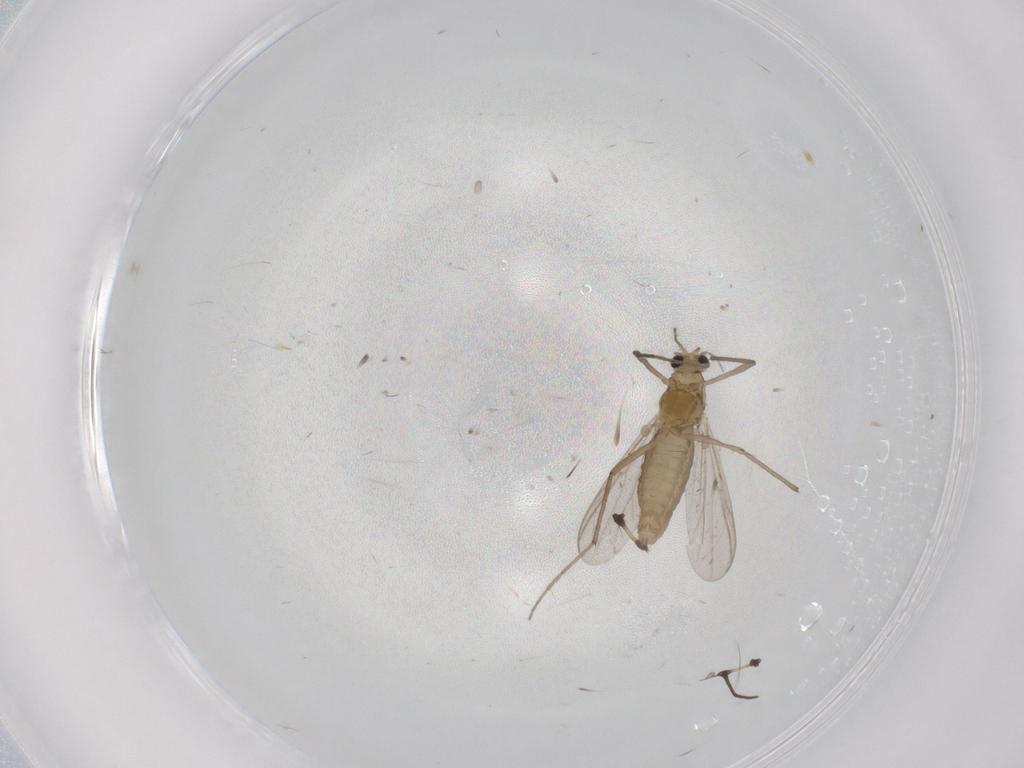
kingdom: Animalia
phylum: Arthropoda
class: Insecta
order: Diptera
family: Chironomidae
